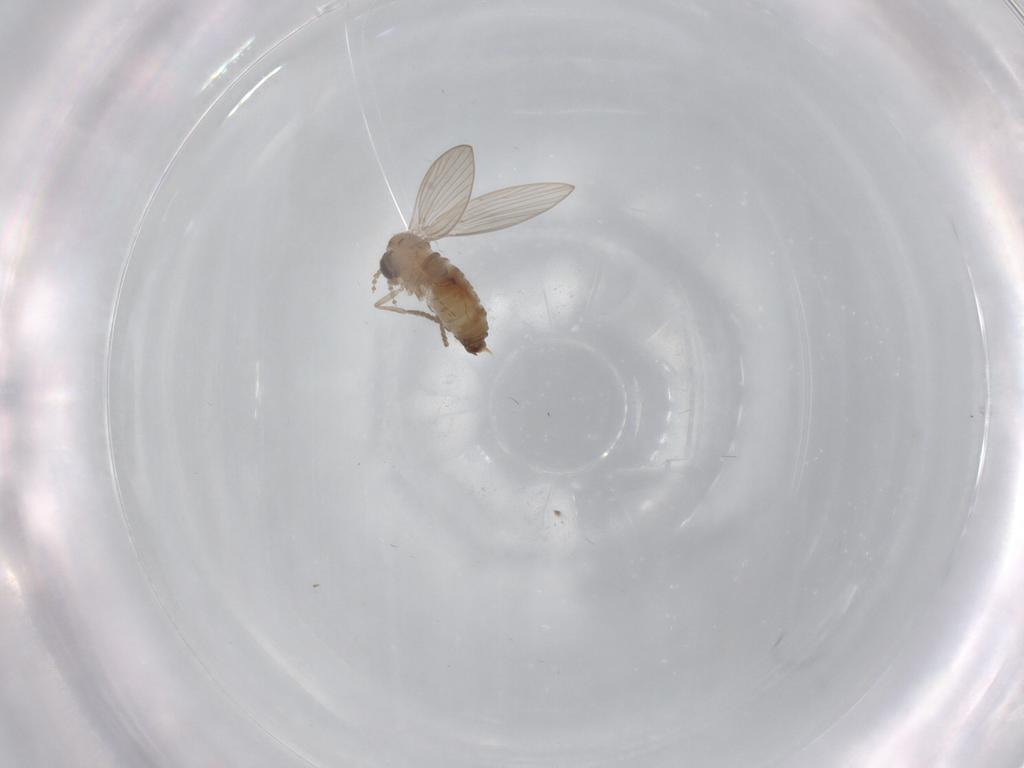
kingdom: Animalia
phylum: Arthropoda
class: Insecta
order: Diptera
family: Psychodidae
